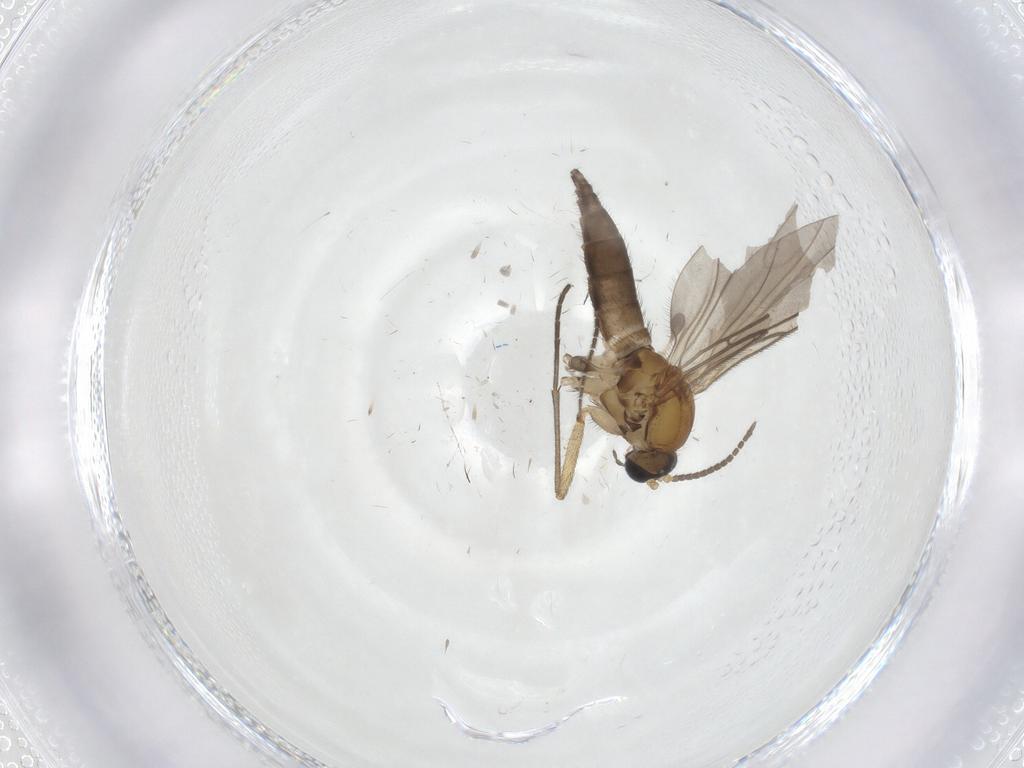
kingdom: Animalia
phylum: Arthropoda
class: Insecta
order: Diptera
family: Sciaridae
